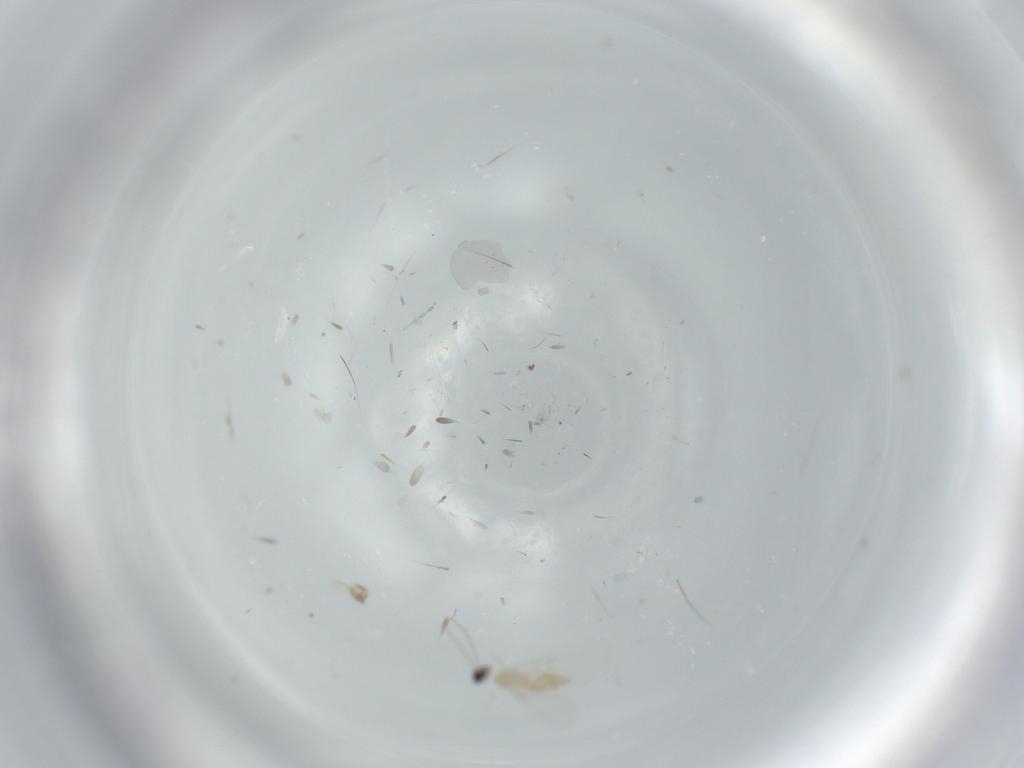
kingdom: Animalia
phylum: Arthropoda
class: Insecta
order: Diptera
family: Cecidomyiidae
